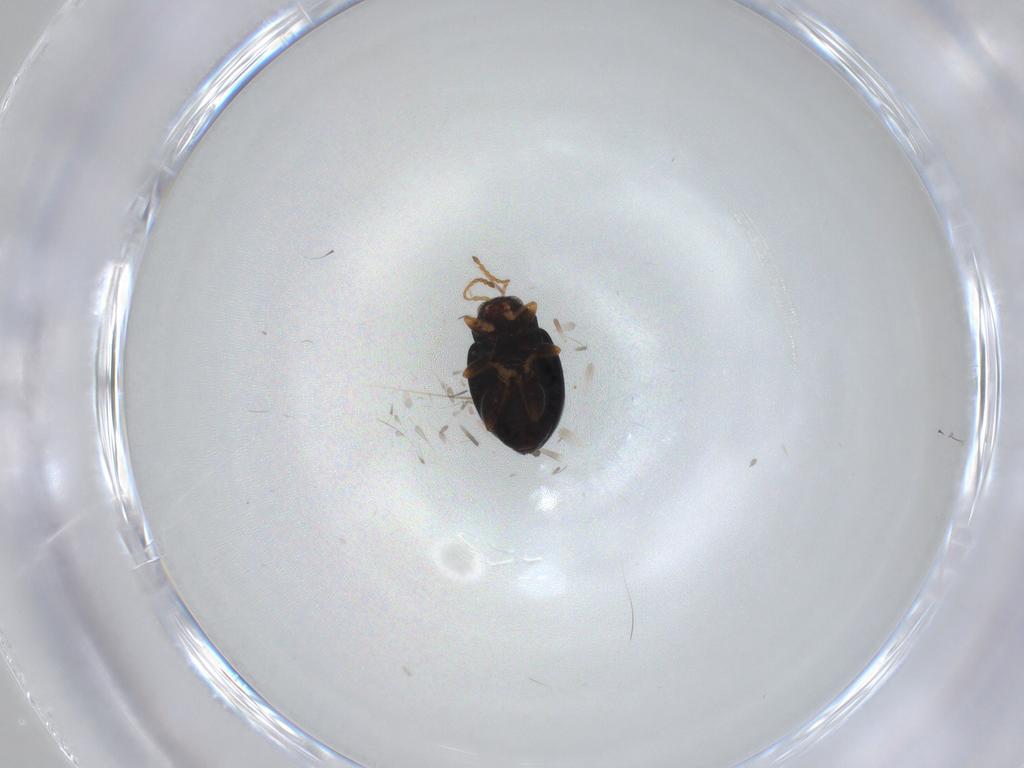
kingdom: Animalia
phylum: Arthropoda
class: Insecta
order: Coleoptera
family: Chrysomelidae
